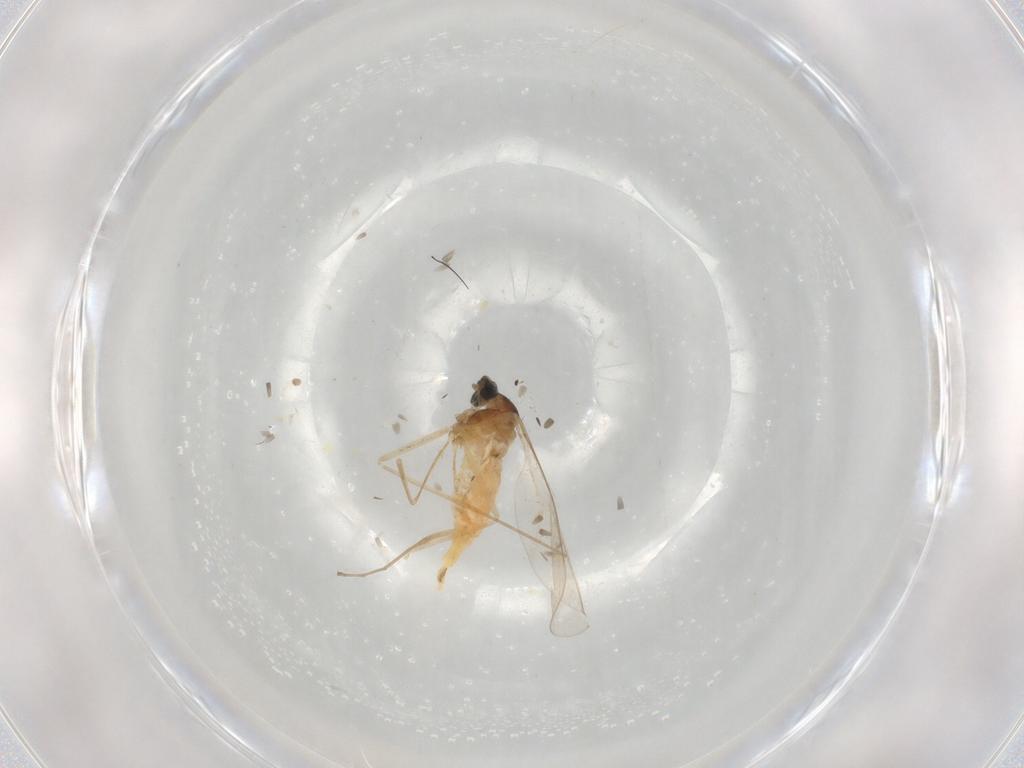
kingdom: Animalia
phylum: Arthropoda
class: Insecta
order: Diptera
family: Cecidomyiidae
